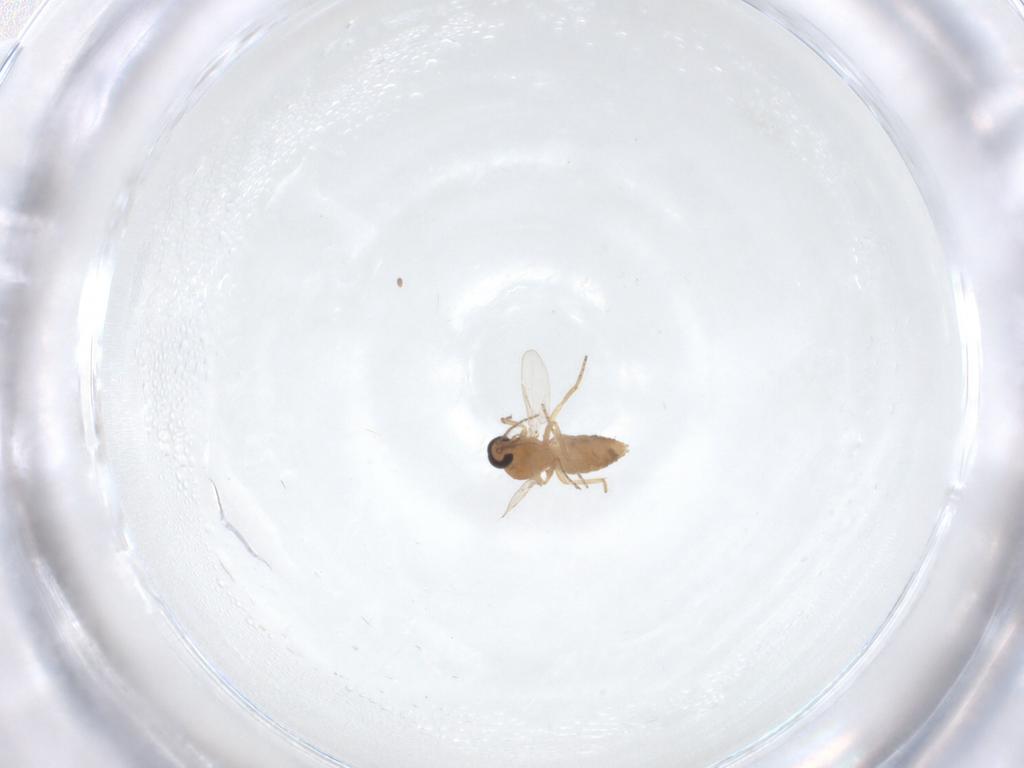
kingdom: Animalia
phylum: Arthropoda
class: Insecta
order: Diptera
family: Ceratopogonidae
